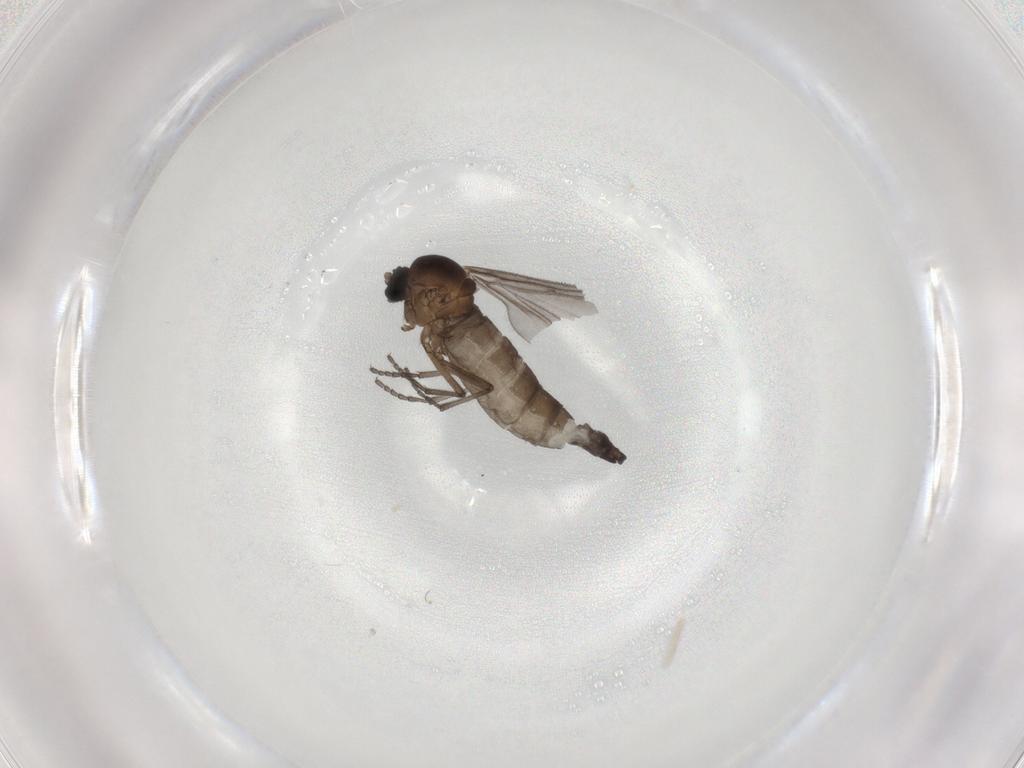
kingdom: Animalia
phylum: Arthropoda
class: Insecta
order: Diptera
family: Sciaridae
